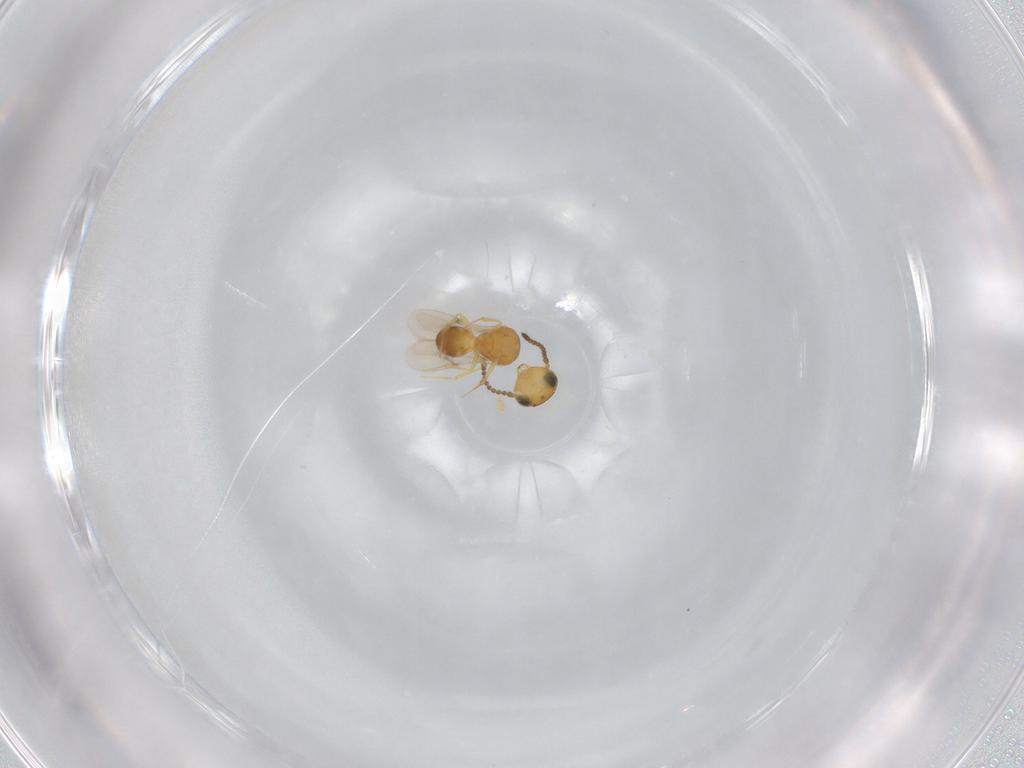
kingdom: Animalia
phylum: Arthropoda
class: Insecta
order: Hymenoptera
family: Scelionidae
